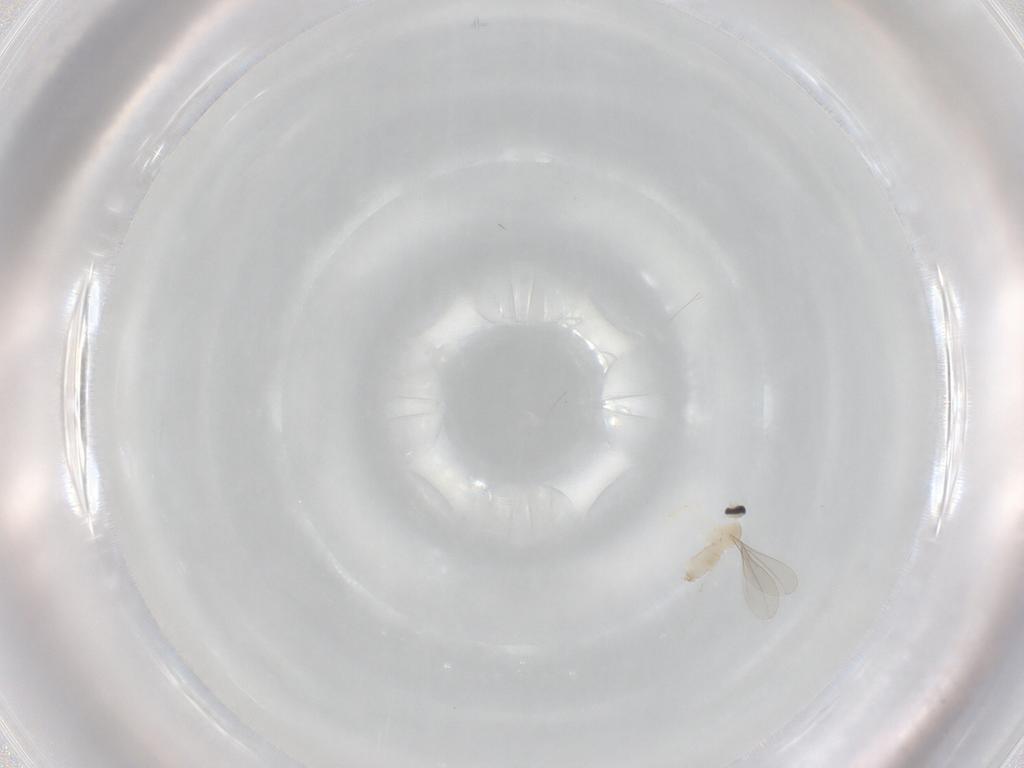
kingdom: Animalia
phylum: Arthropoda
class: Insecta
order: Diptera
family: Cecidomyiidae
